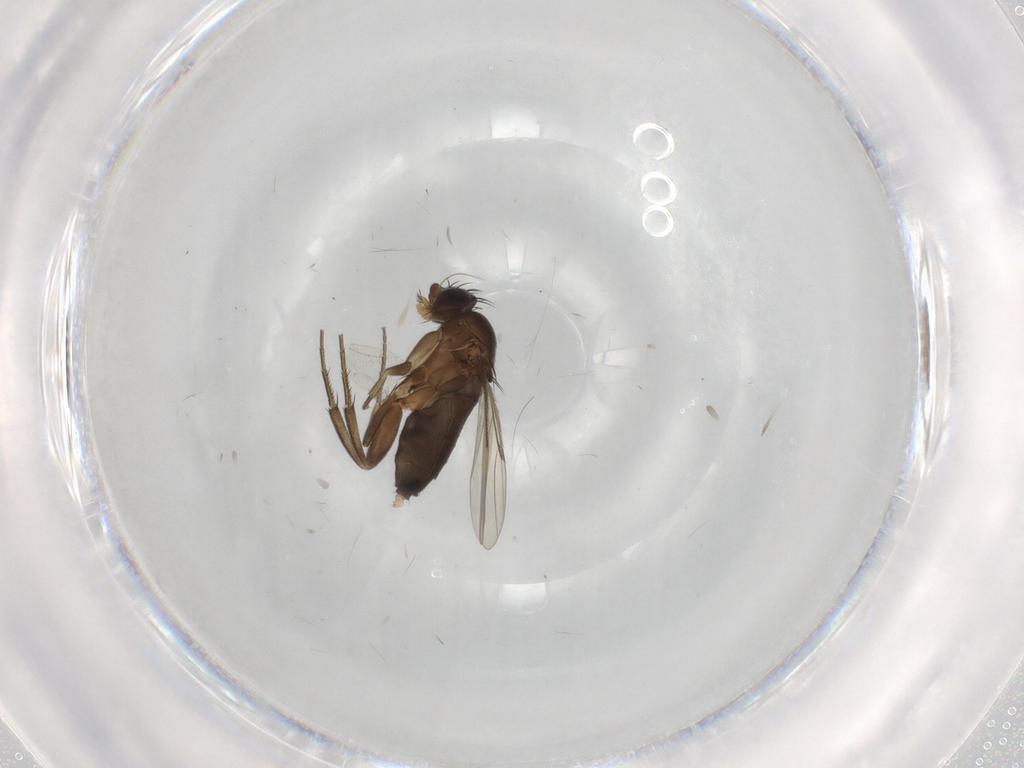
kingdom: Animalia
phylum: Arthropoda
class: Insecta
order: Diptera
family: Phoridae
